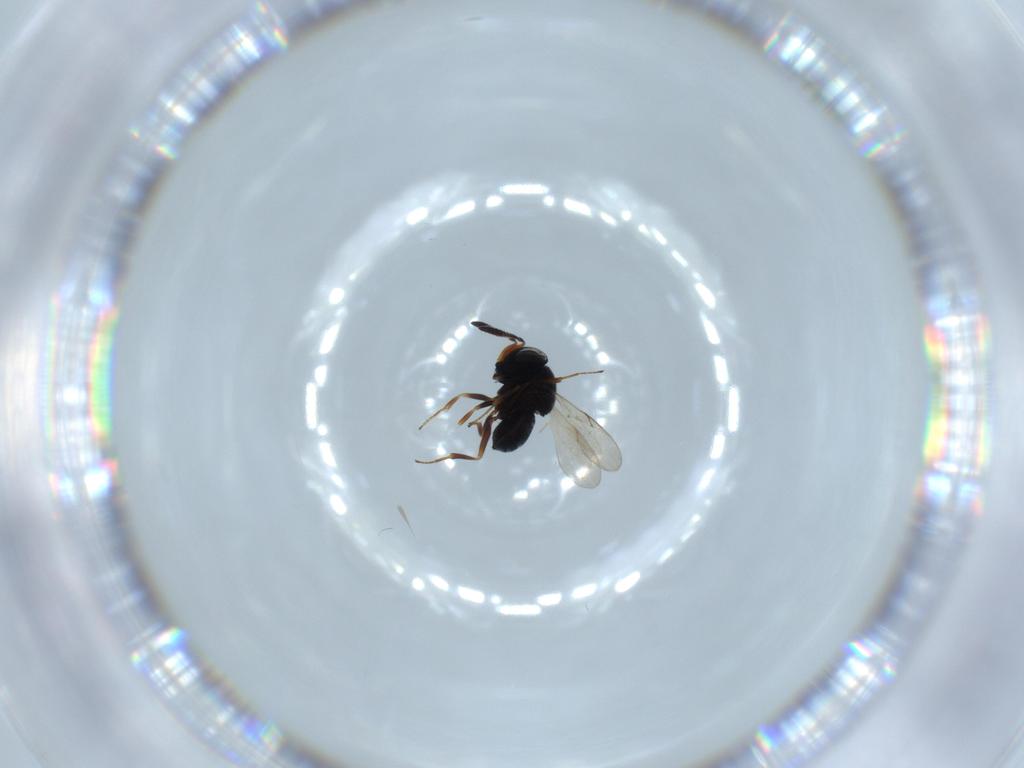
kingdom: Animalia
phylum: Arthropoda
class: Insecta
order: Hymenoptera
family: Scelionidae
